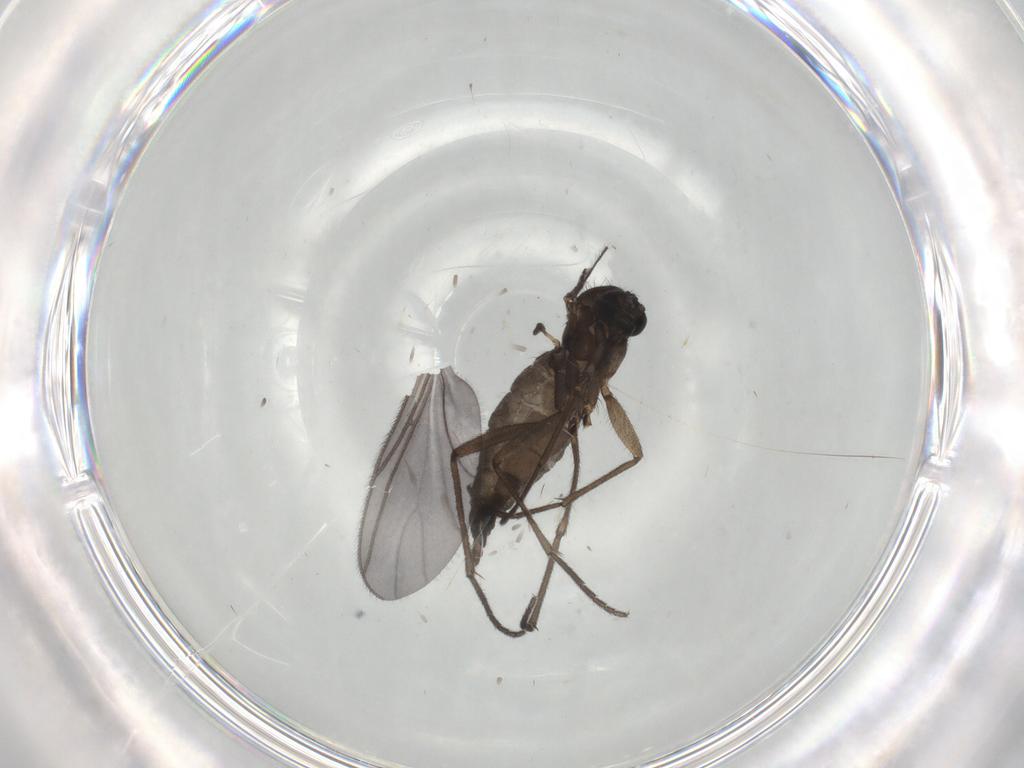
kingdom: Animalia
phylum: Arthropoda
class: Insecta
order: Diptera
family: Sciaridae
